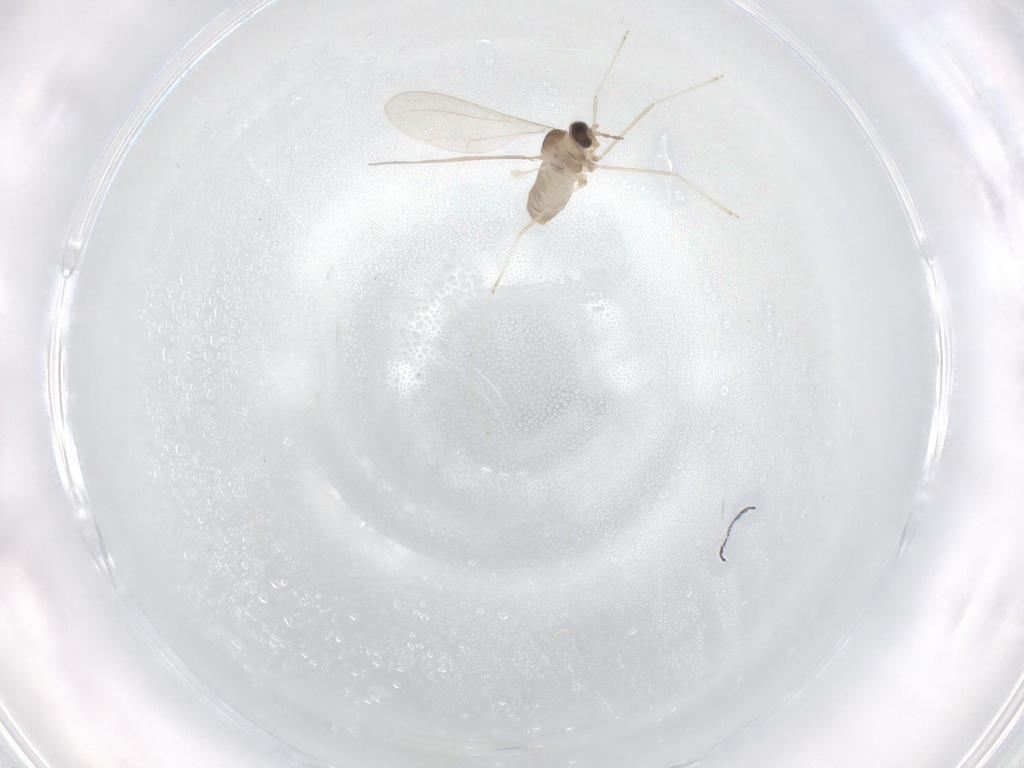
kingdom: Animalia
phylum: Arthropoda
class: Insecta
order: Diptera
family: Cecidomyiidae
